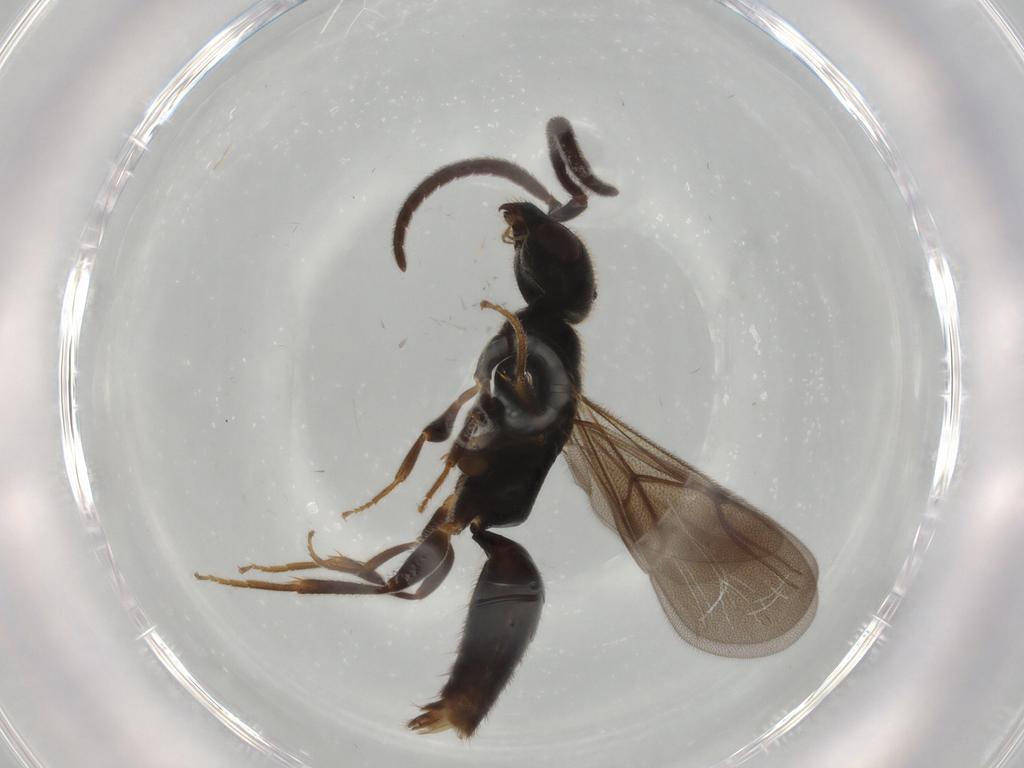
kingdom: Animalia
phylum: Arthropoda
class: Insecta
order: Hymenoptera
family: Bethylidae
